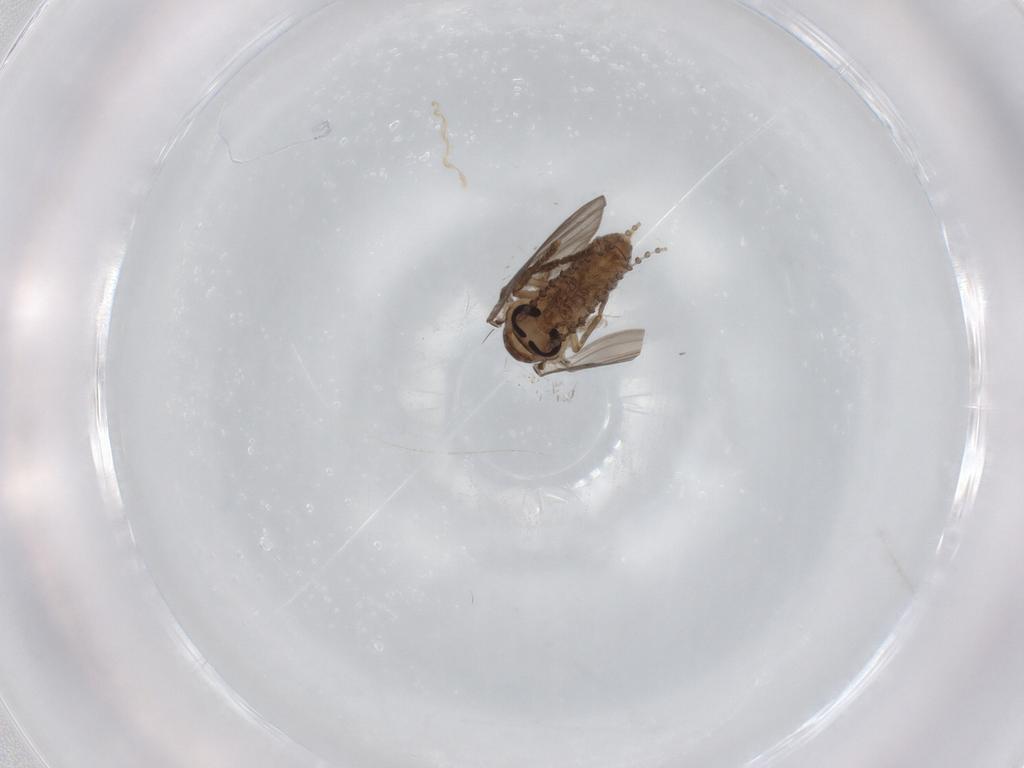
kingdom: Animalia
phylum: Arthropoda
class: Insecta
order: Diptera
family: Psychodidae
